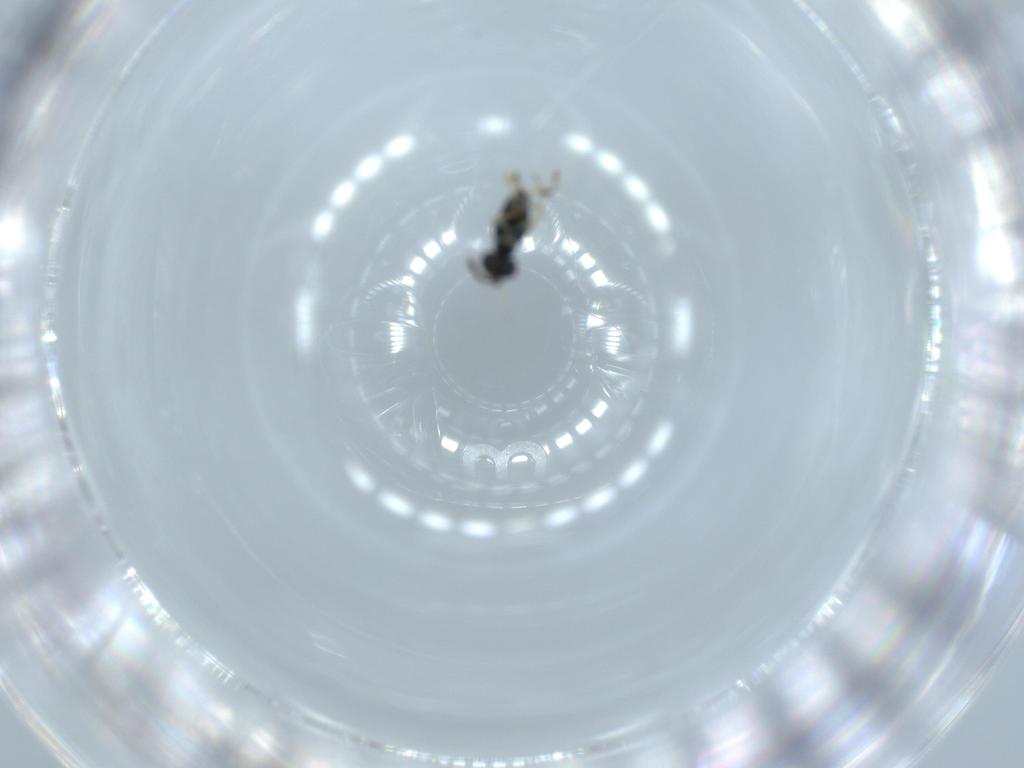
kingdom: Animalia
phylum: Arthropoda
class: Insecta
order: Hymenoptera
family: Eupelmidae
